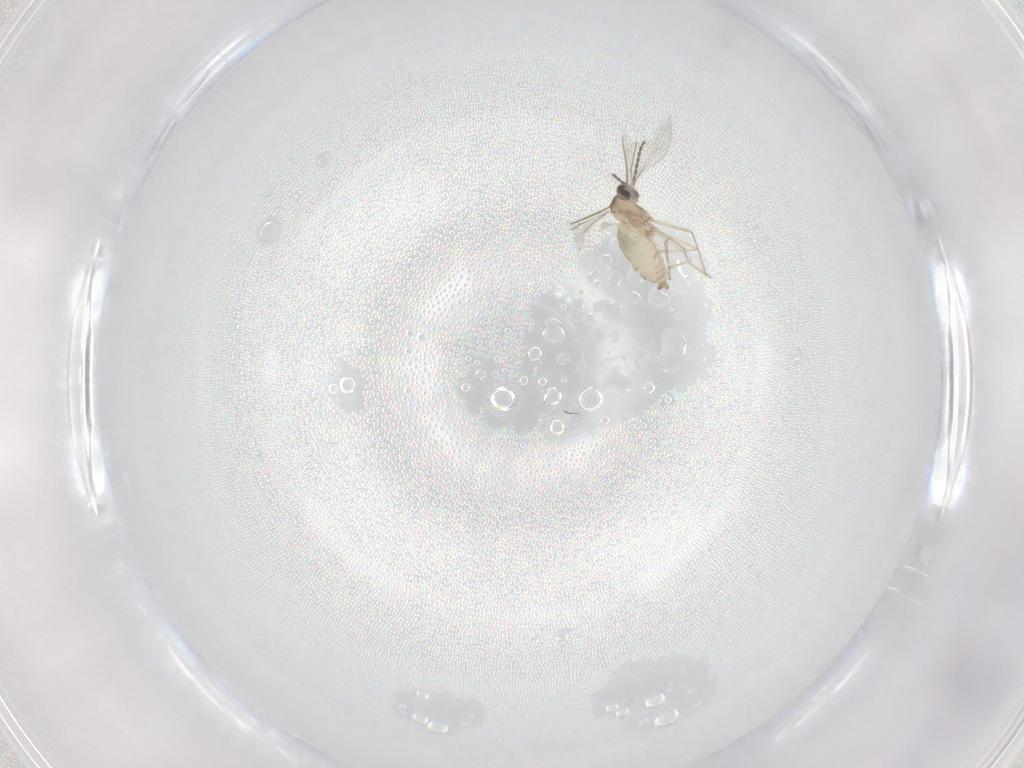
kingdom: Animalia
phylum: Arthropoda
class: Insecta
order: Diptera
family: Cecidomyiidae
